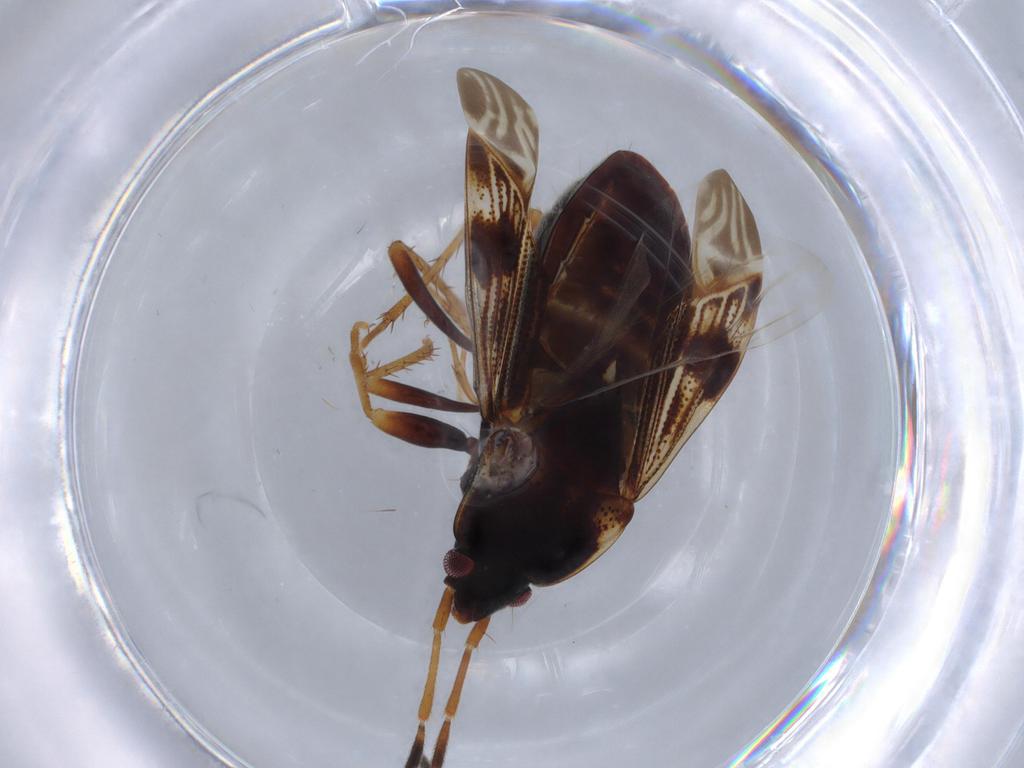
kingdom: Animalia
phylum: Arthropoda
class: Insecta
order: Hemiptera
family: Rhyparochromidae
